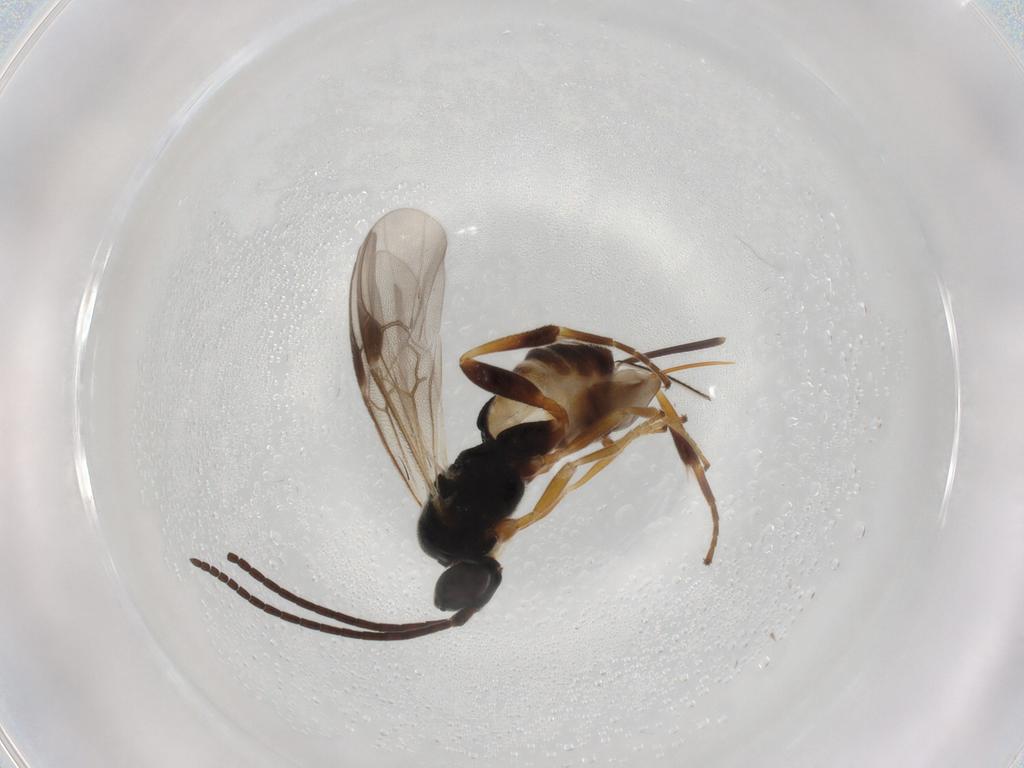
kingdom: Animalia
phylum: Arthropoda
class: Insecta
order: Hymenoptera
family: Braconidae
